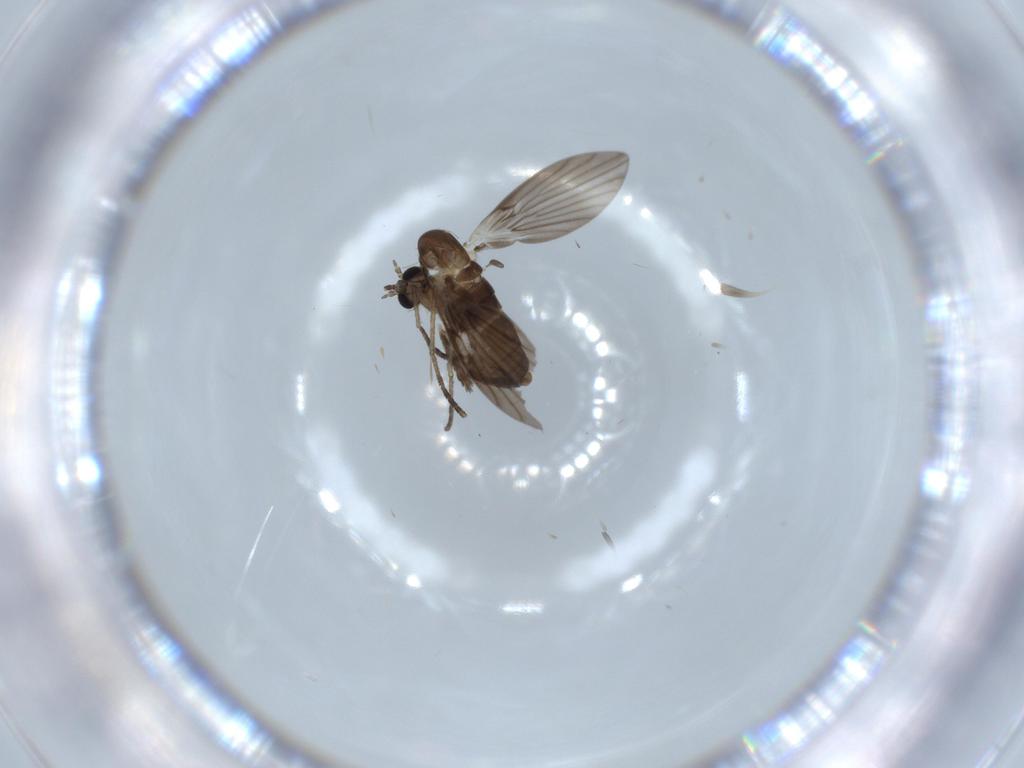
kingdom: Animalia
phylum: Arthropoda
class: Insecta
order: Diptera
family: Psychodidae
